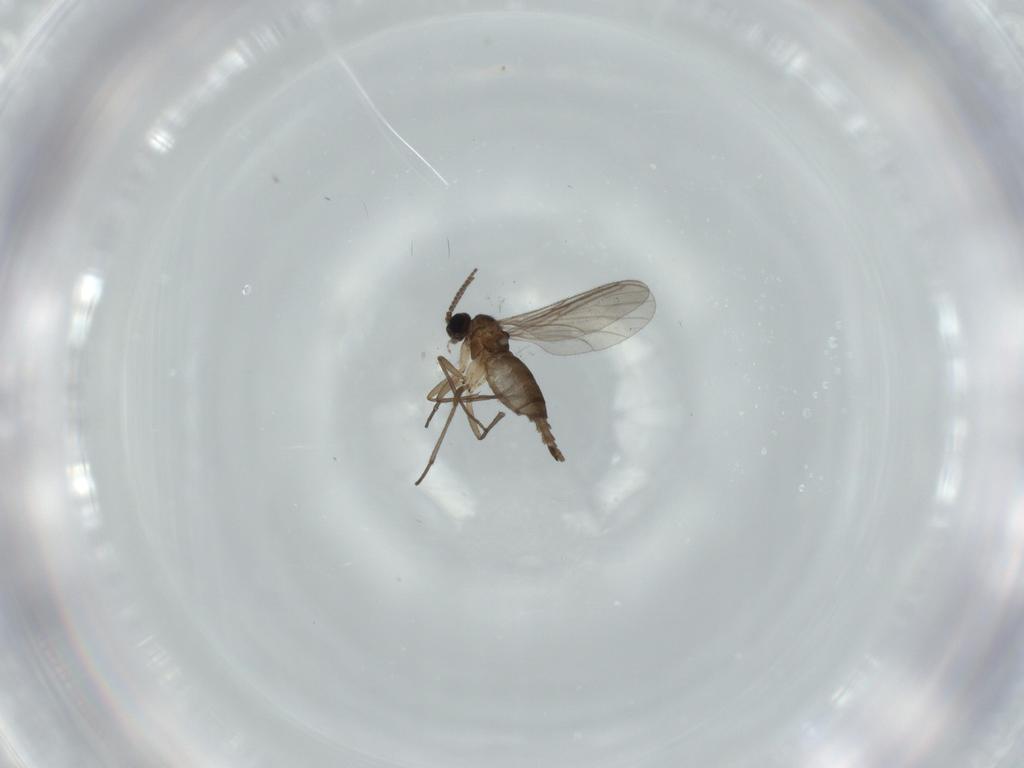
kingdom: Animalia
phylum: Arthropoda
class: Insecta
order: Diptera
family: Sciaridae
